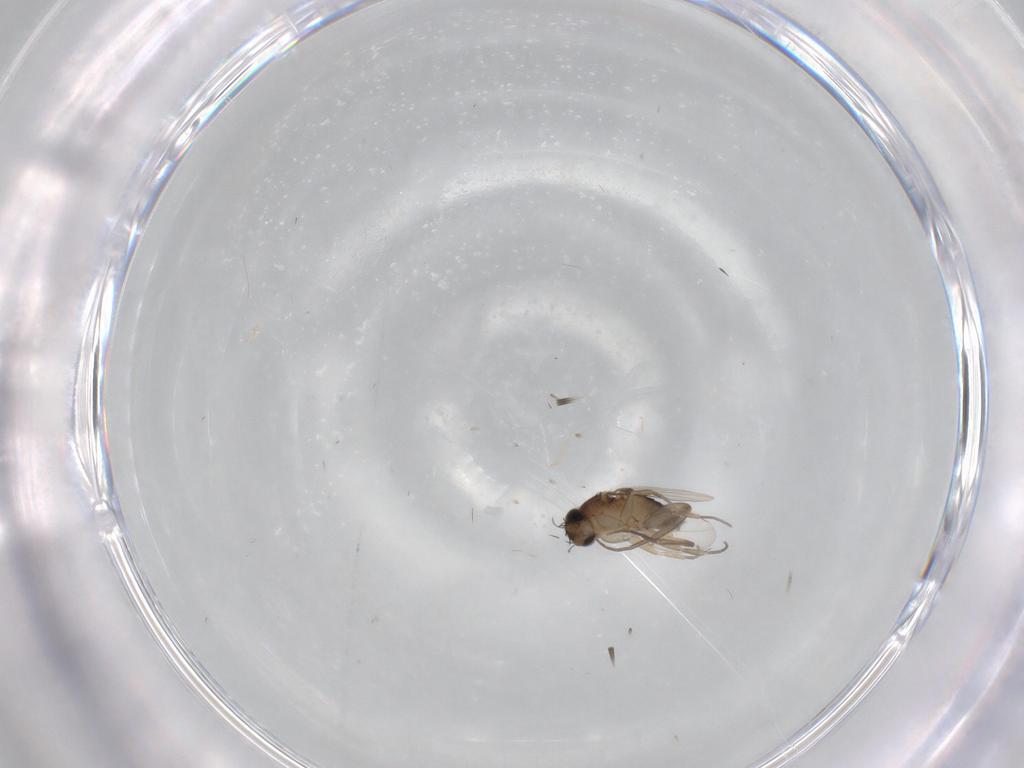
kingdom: Animalia
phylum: Arthropoda
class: Insecta
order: Diptera
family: Phoridae
